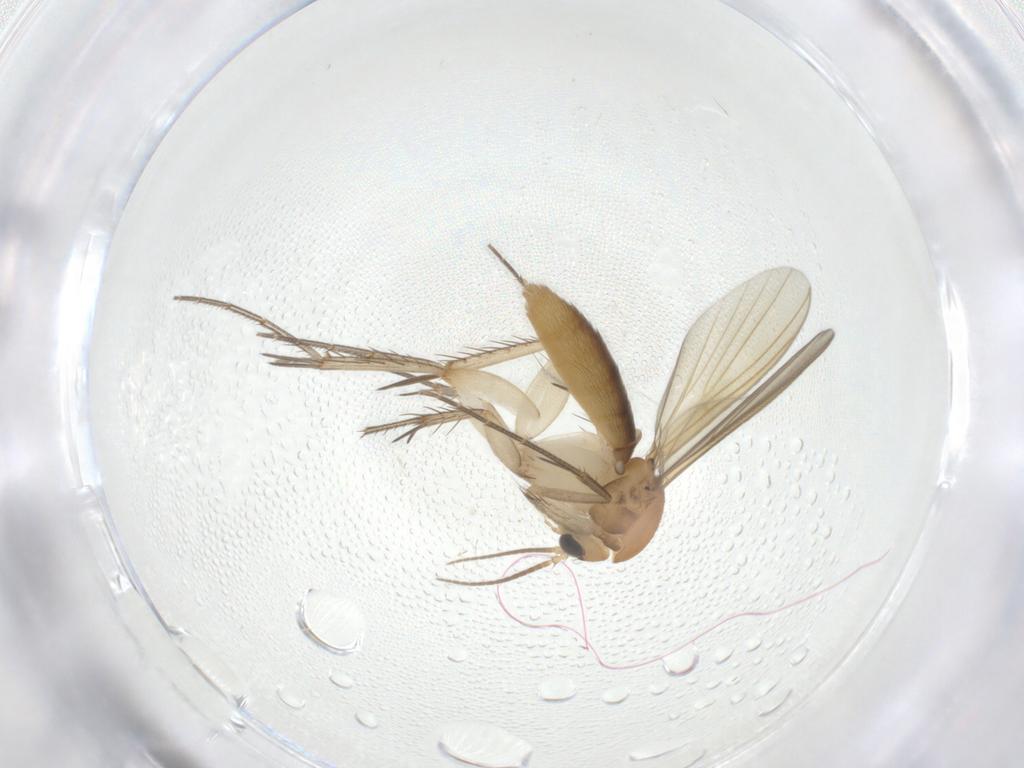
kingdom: Animalia
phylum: Arthropoda
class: Insecta
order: Diptera
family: Mycetophilidae
